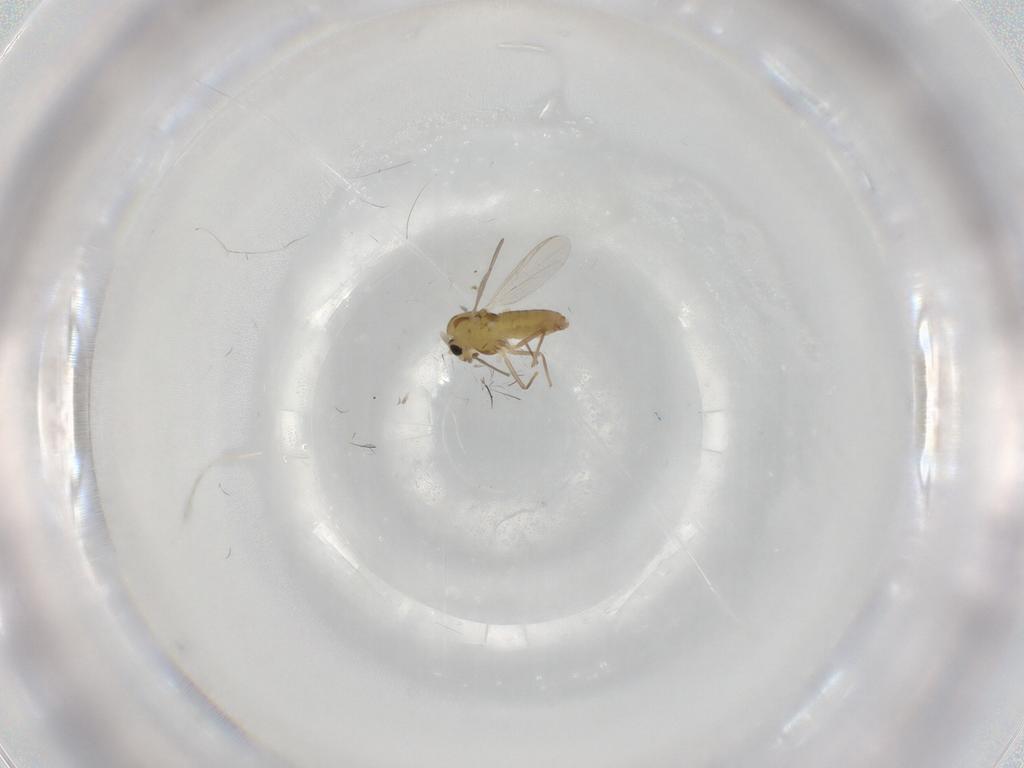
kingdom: Animalia
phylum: Arthropoda
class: Insecta
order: Diptera
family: Chironomidae
